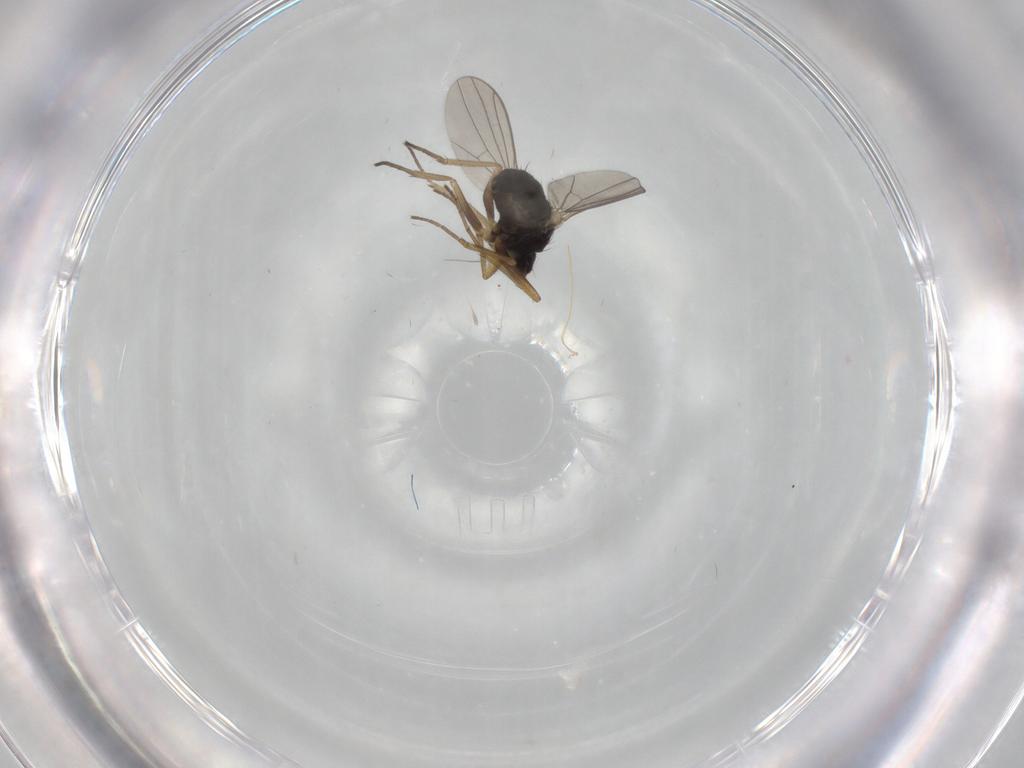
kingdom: Animalia
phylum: Arthropoda
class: Insecta
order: Diptera
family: Dolichopodidae
